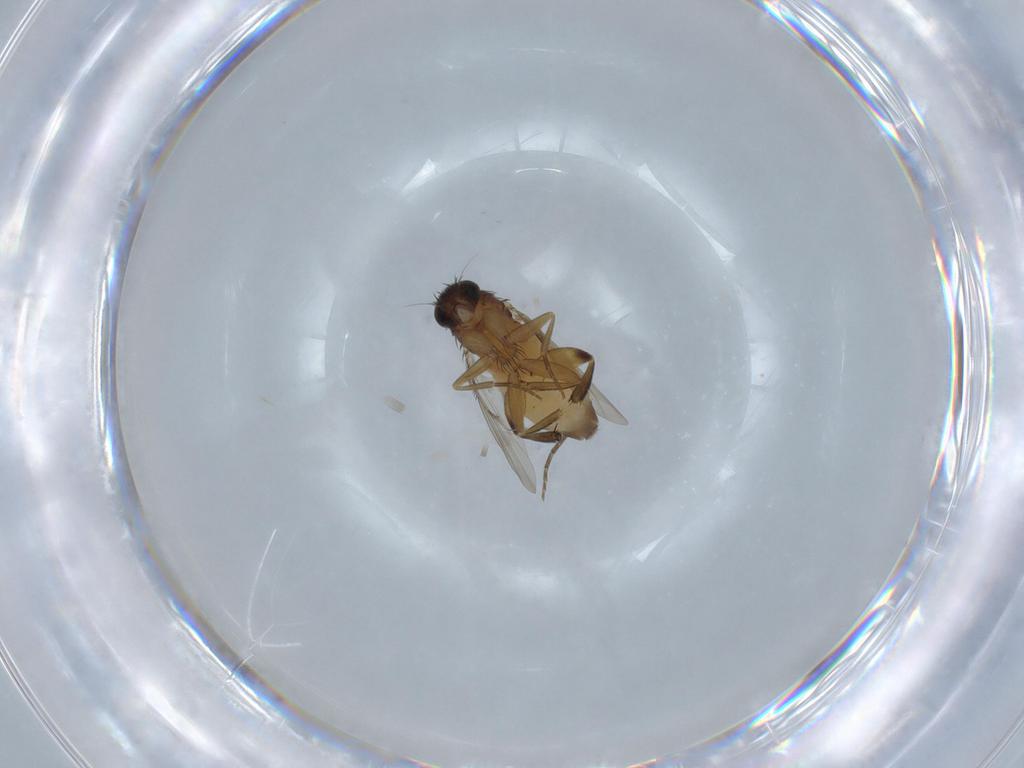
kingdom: Animalia
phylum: Arthropoda
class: Insecta
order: Diptera
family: Phoridae
